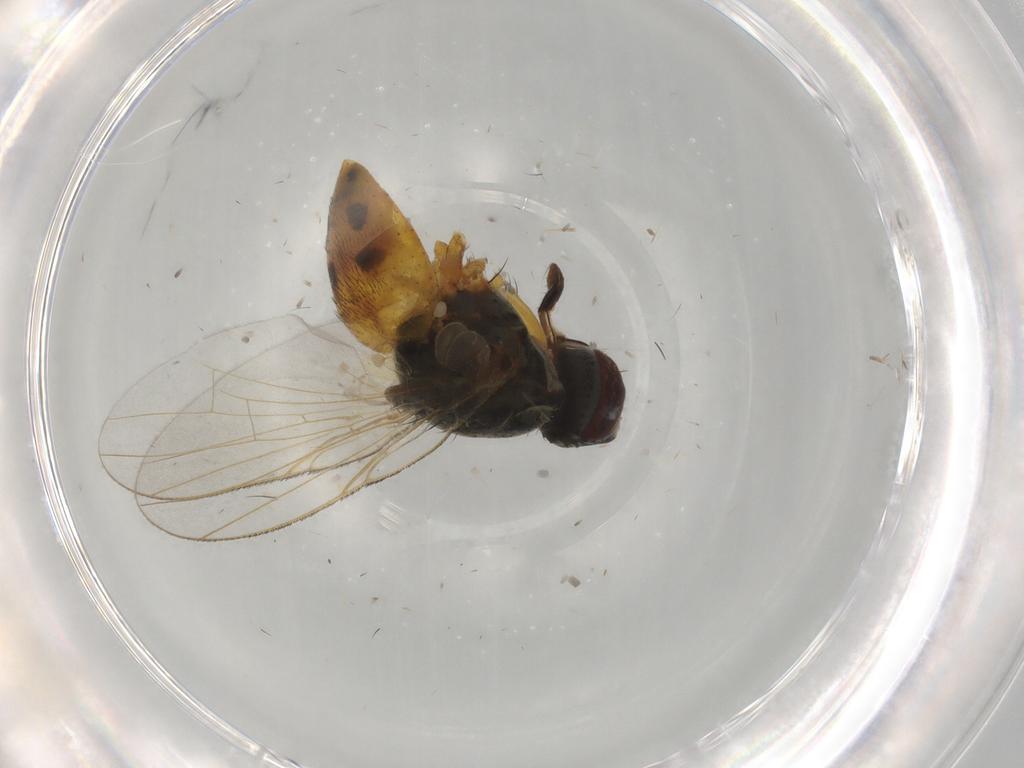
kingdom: Animalia
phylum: Arthropoda
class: Insecta
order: Diptera
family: Muscidae
